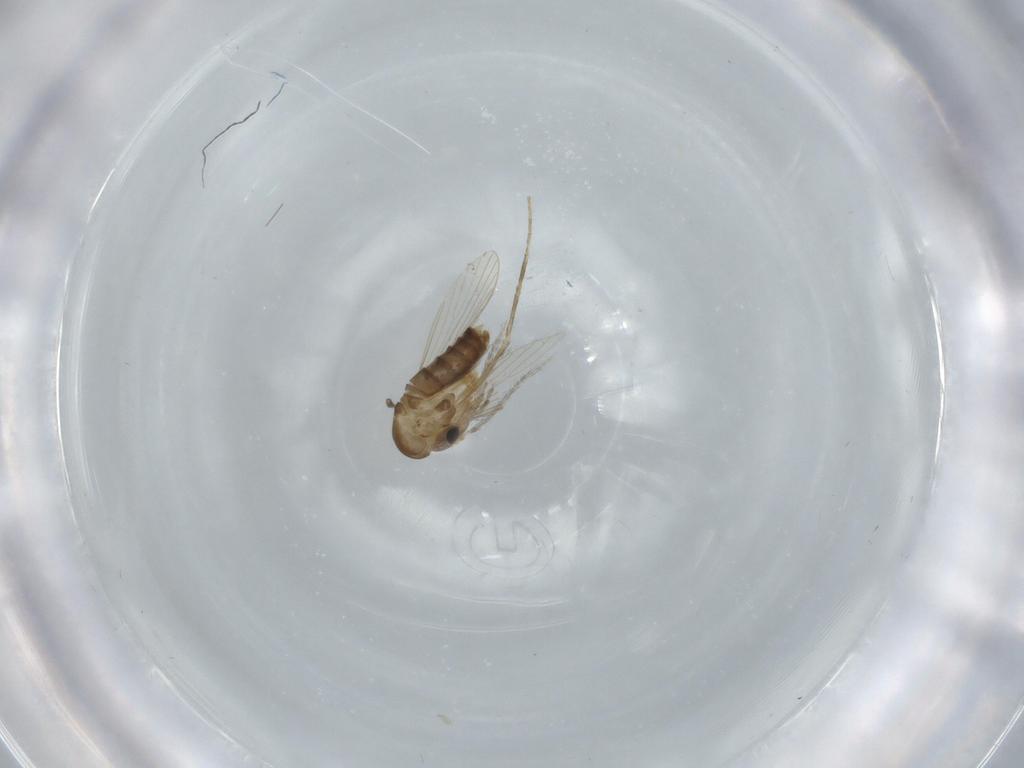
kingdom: Animalia
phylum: Arthropoda
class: Insecta
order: Diptera
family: Psychodidae
